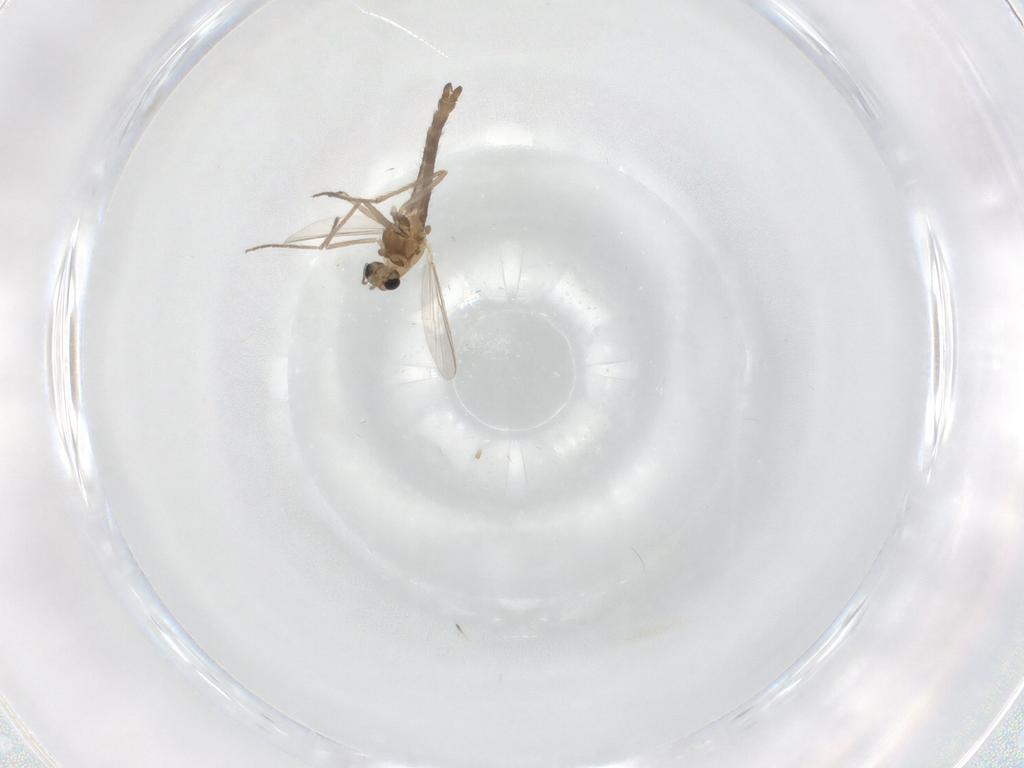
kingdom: Animalia
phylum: Arthropoda
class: Insecta
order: Diptera
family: Chironomidae
